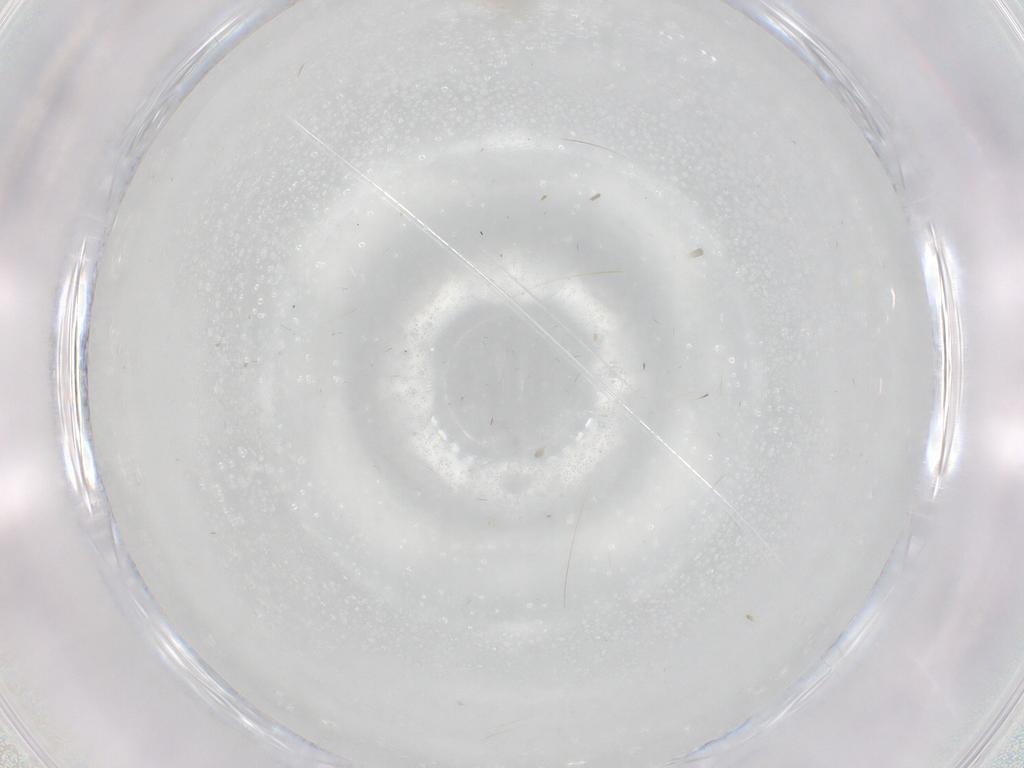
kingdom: Animalia
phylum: Arthropoda
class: Insecta
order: Diptera
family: Chironomidae
